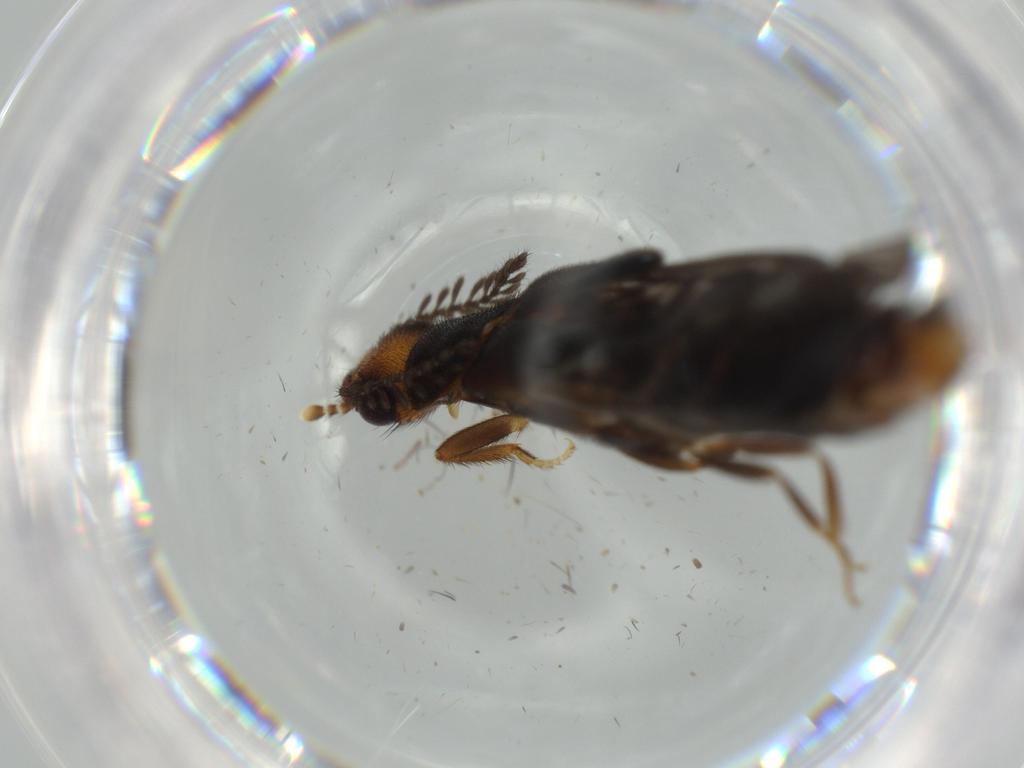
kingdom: Animalia
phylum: Arthropoda
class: Insecta
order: Coleoptera
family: Phengodidae
